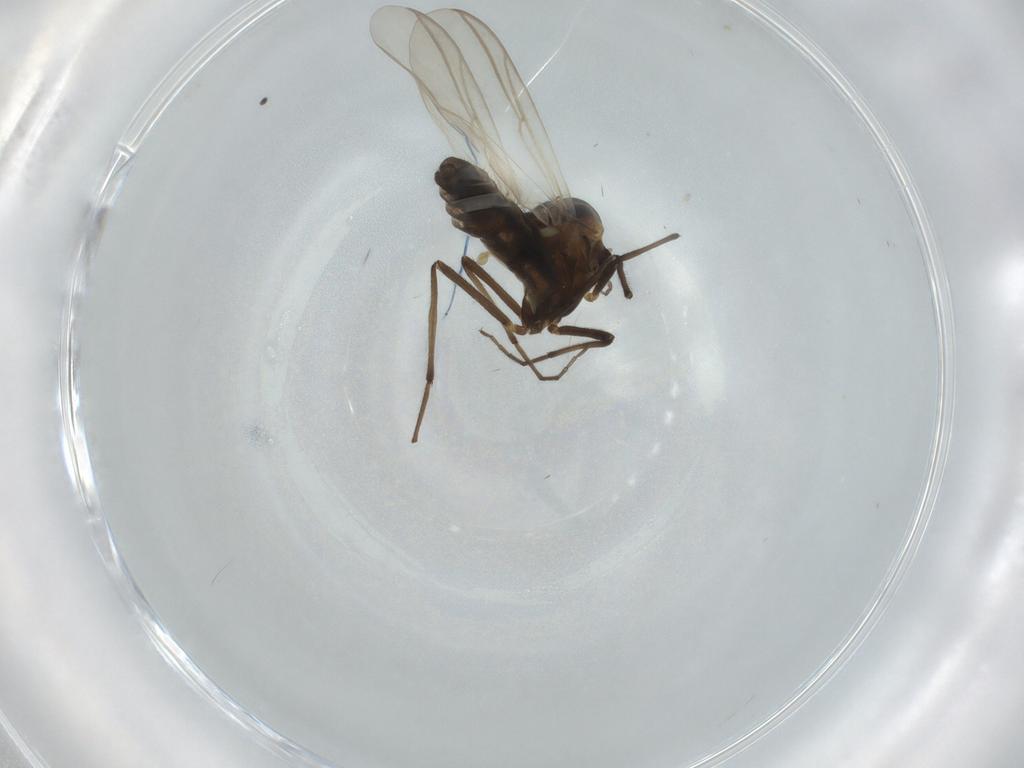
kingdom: Animalia
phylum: Arthropoda
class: Insecta
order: Diptera
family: Chironomidae
